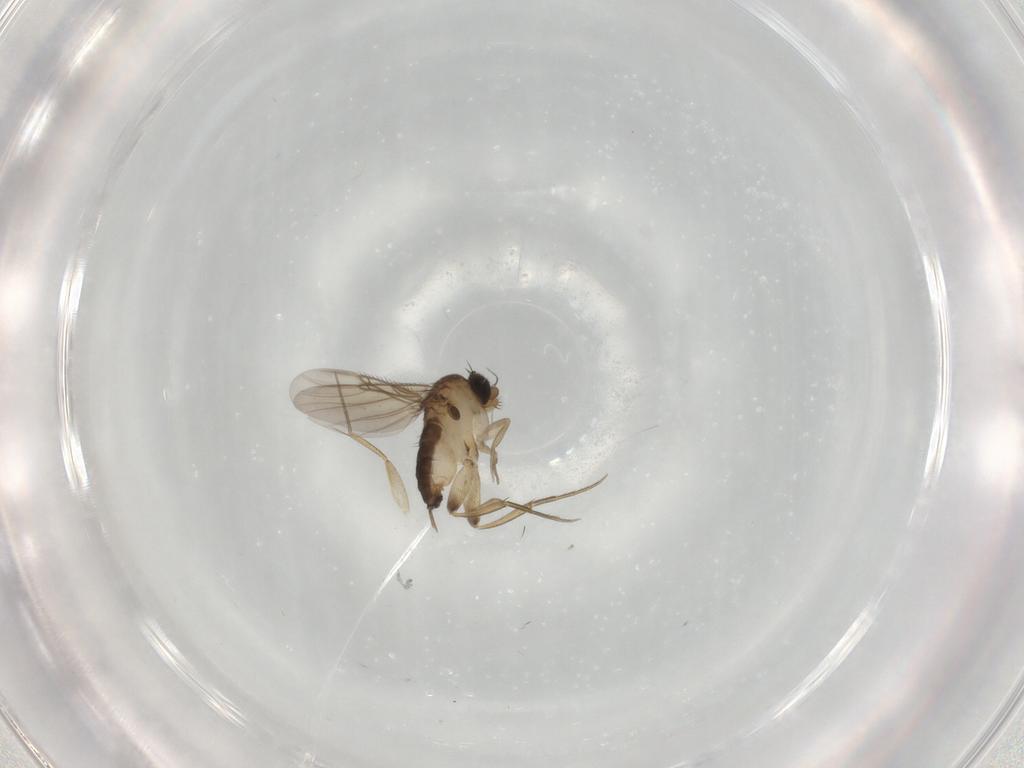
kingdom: Animalia
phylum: Arthropoda
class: Insecta
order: Diptera
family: Phoridae
